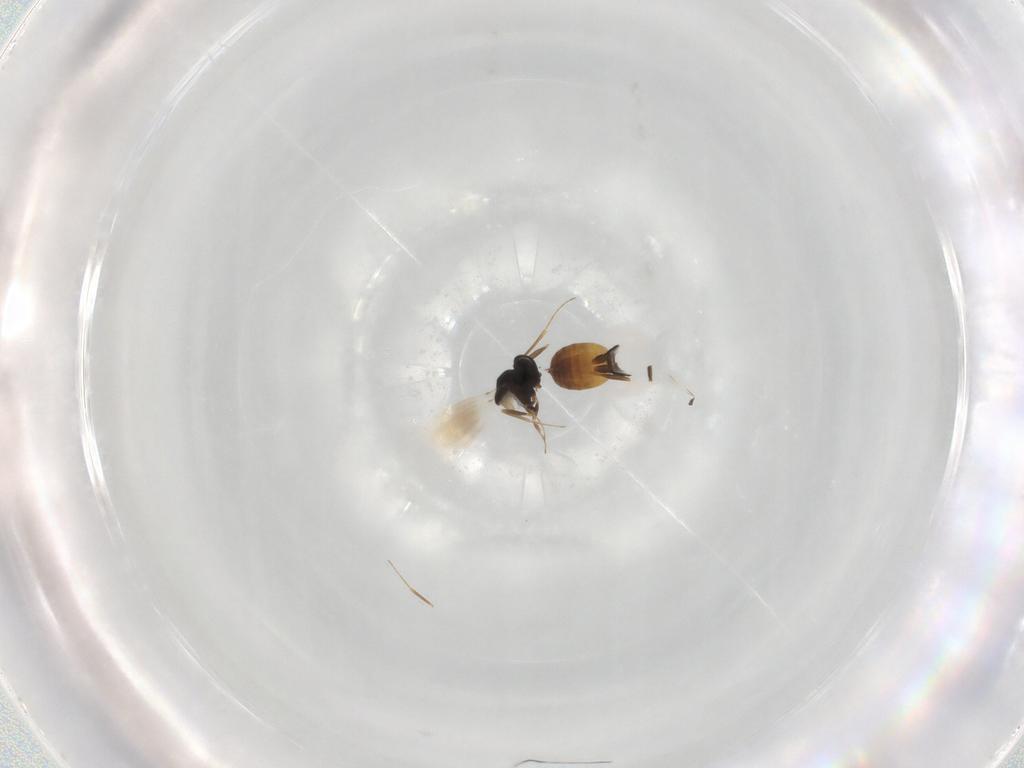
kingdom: Animalia
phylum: Arthropoda
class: Insecta
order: Hymenoptera
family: Scelionidae
